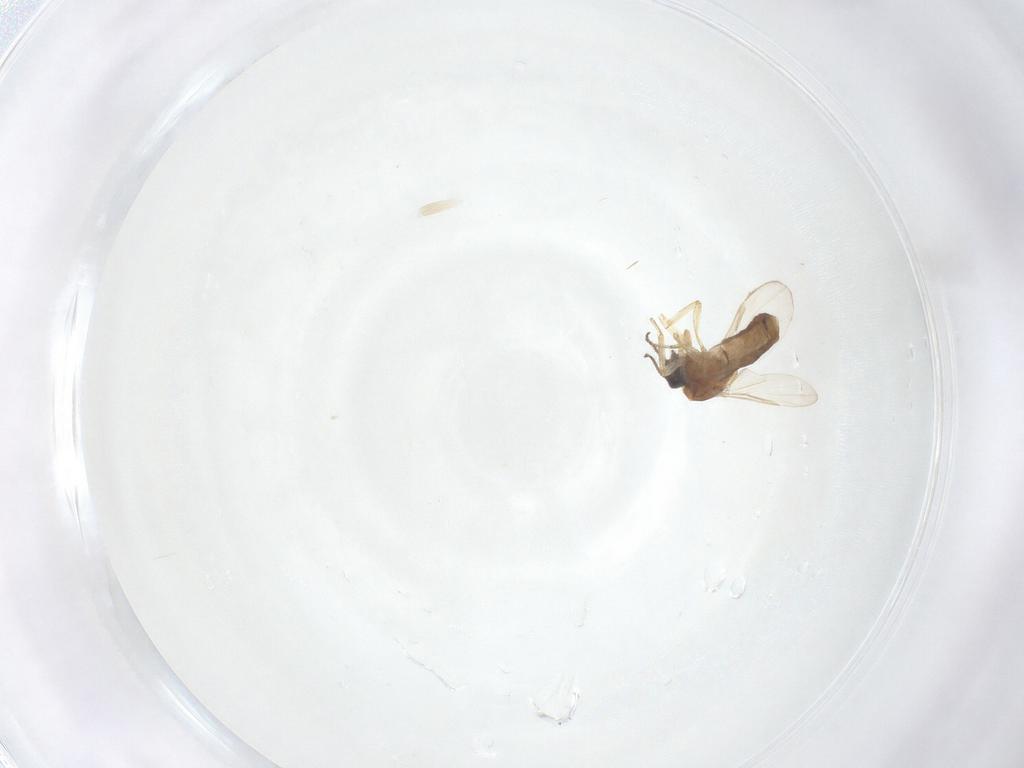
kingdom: Animalia
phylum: Arthropoda
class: Insecta
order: Diptera
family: Ceratopogonidae
